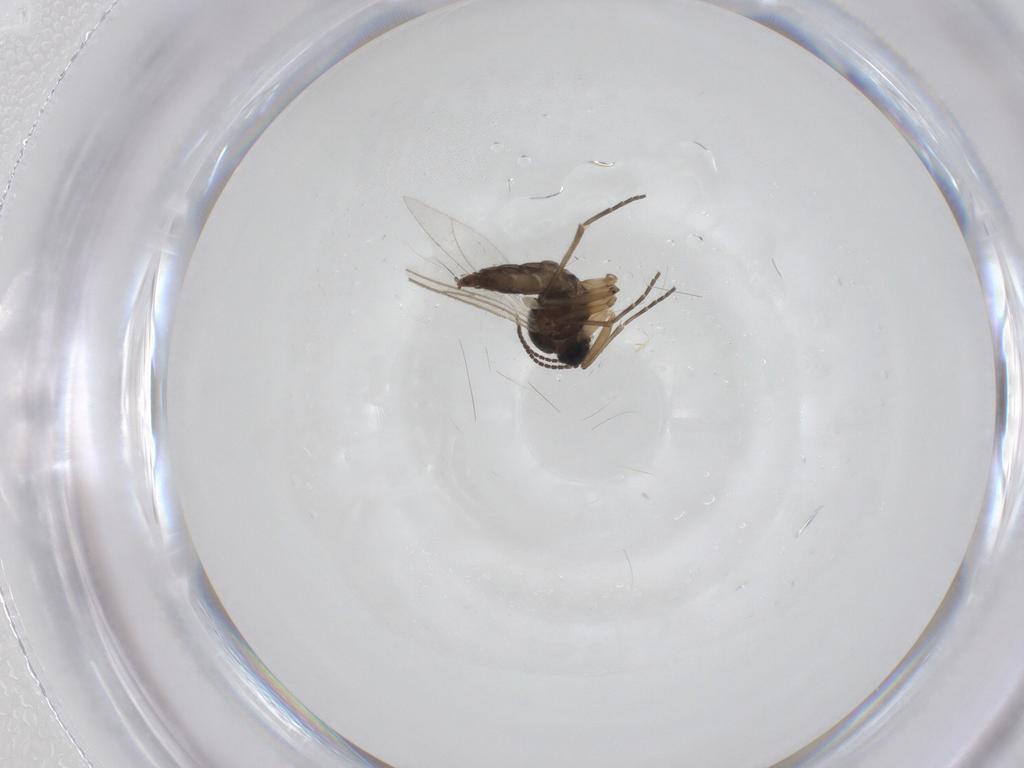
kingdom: Animalia
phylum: Arthropoda
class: Insecta
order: Diptera
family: Sciaridae
